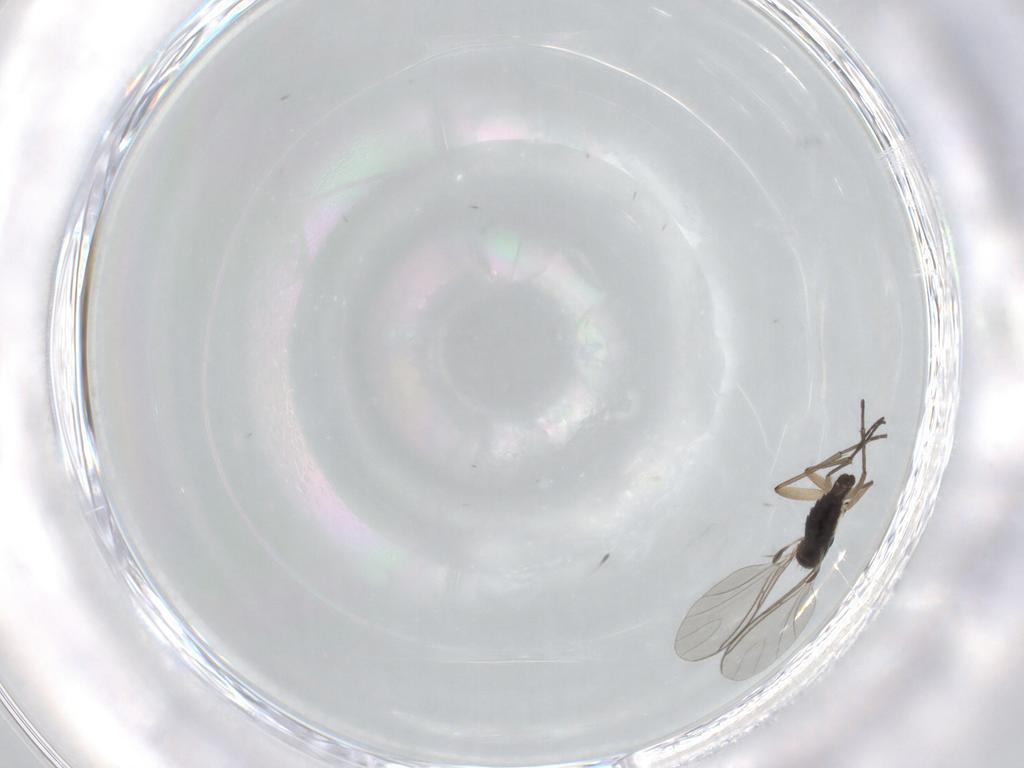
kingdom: Animalia
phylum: Arthropoda
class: Insecta
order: Diptera
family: Sciaridae
